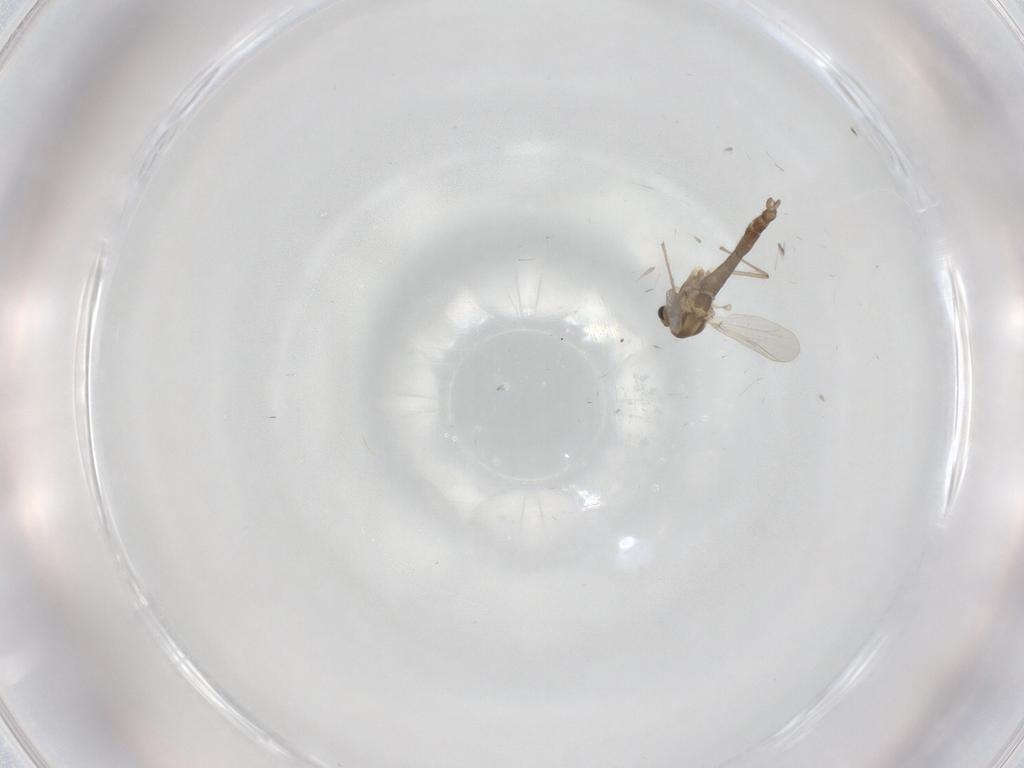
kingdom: Animalia
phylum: Arthropoda
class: Insecta
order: Diptera
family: Chironomidae
